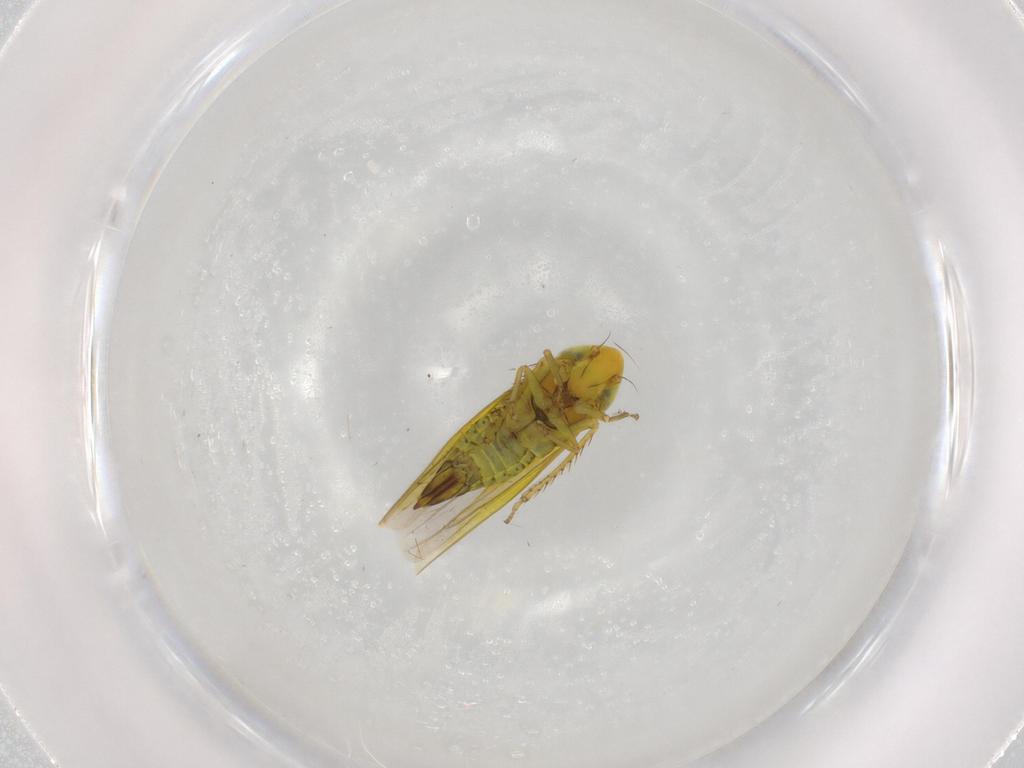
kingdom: Animalia
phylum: Arthropoda
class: Insecta
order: Hemiptera
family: Cicadellidae
